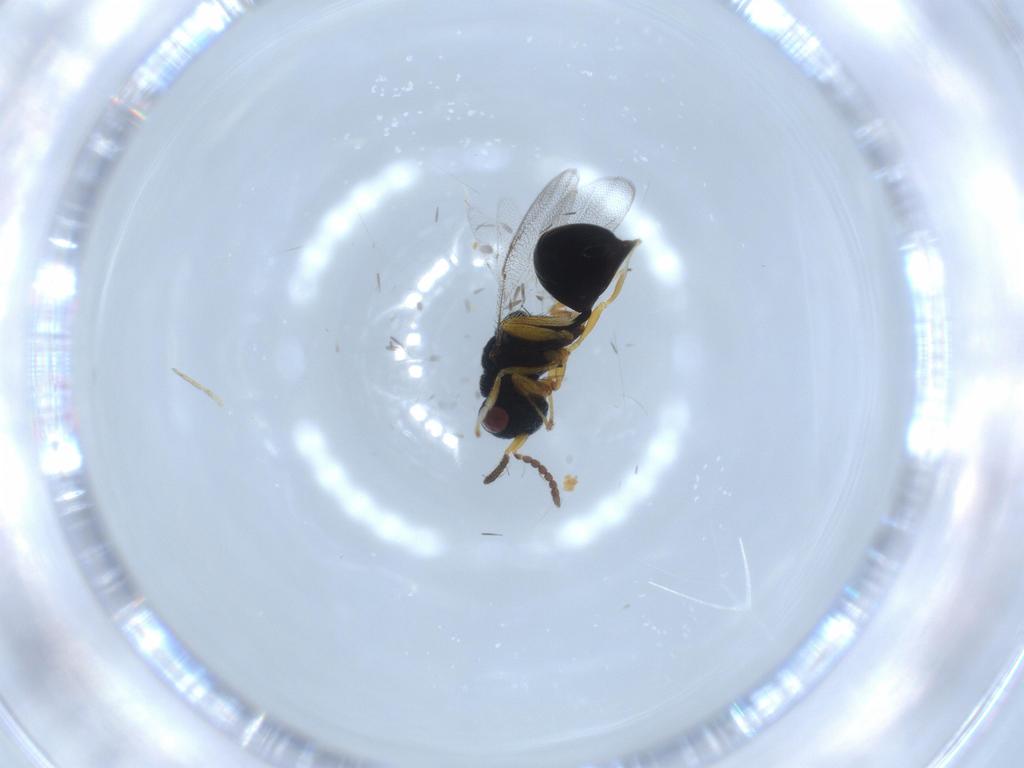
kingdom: Animalia
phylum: Arthropoda
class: Insecta
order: Hymenoptera
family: Eurytomidae
